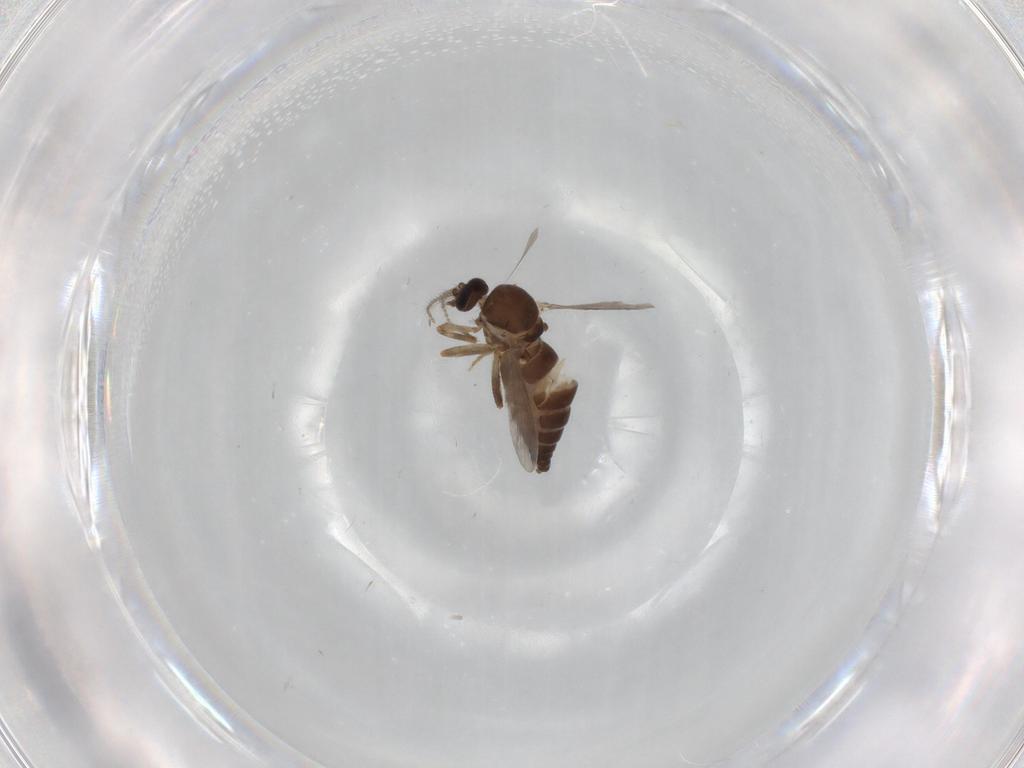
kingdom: Animalia
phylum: Arthropoda
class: Insecta
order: Diptera
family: Ceratopogonidae
